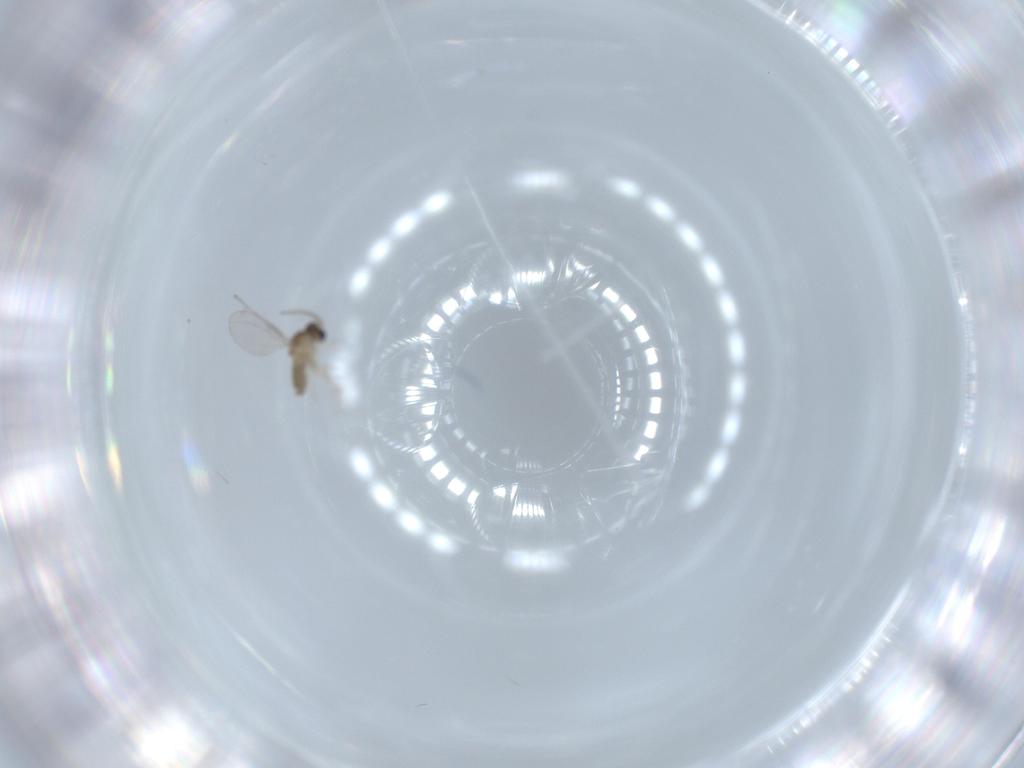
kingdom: Animalia
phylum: Arthropoda
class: Insecta
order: Diptera
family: Cecidomyiidae
